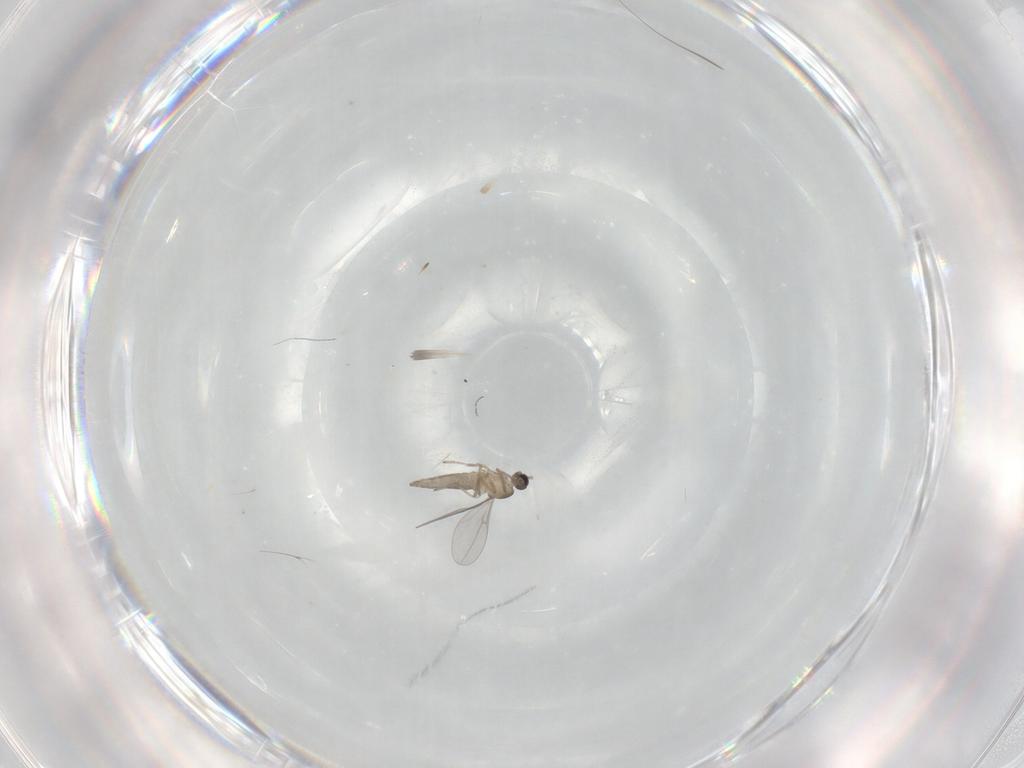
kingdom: Animalia
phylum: Arthropoda
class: Insecta
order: Diptera
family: Cecidomyiidae
